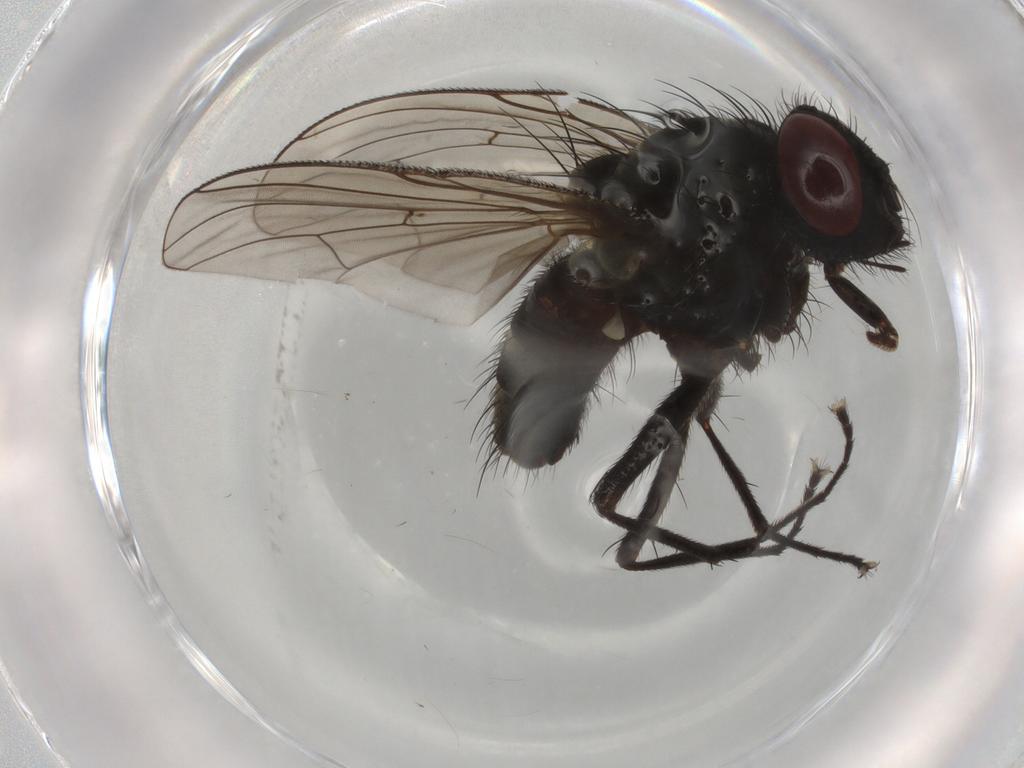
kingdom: Animalia
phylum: Arthropoda
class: Insecta
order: Diptera
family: Muscidae
